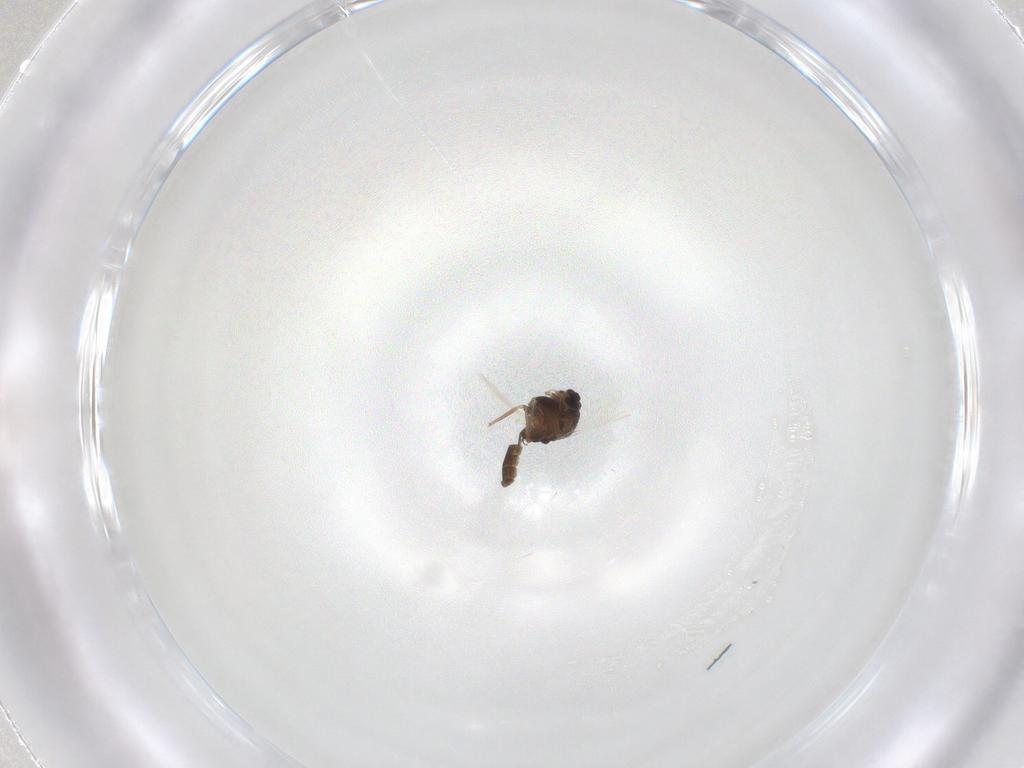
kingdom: Animalia
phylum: Arthropoda
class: Insecta
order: Diptera
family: Chironomidae
